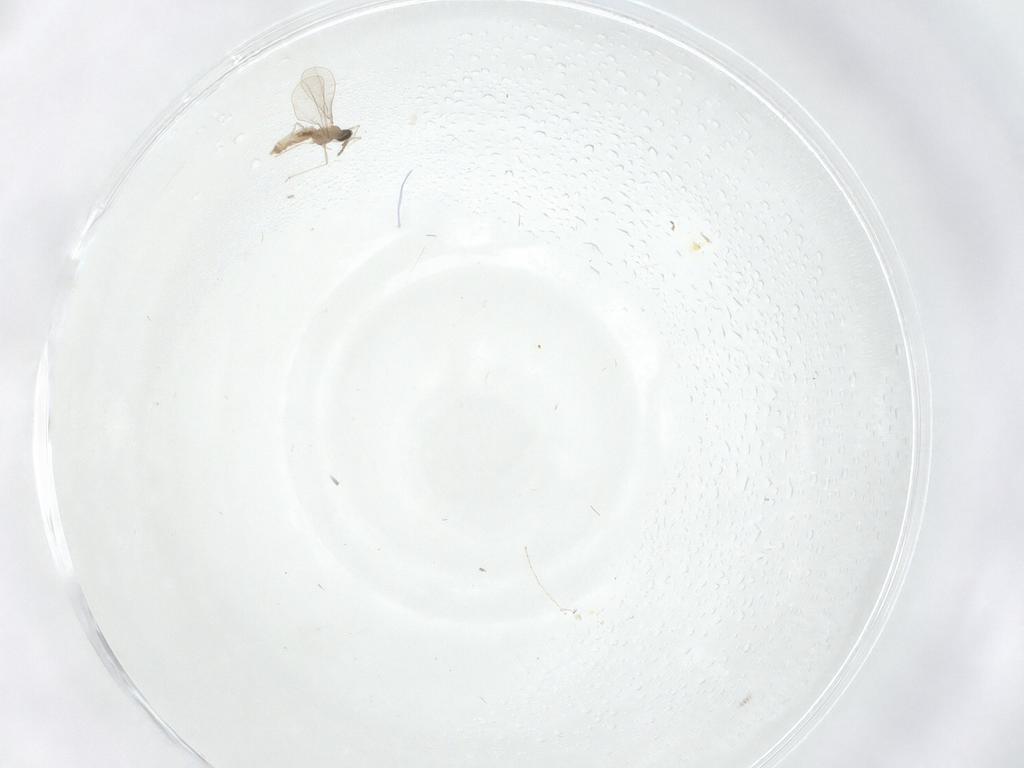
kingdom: Animalia
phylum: Arthropoda
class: Insecta
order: Diptera
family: Cecidomyiidae
